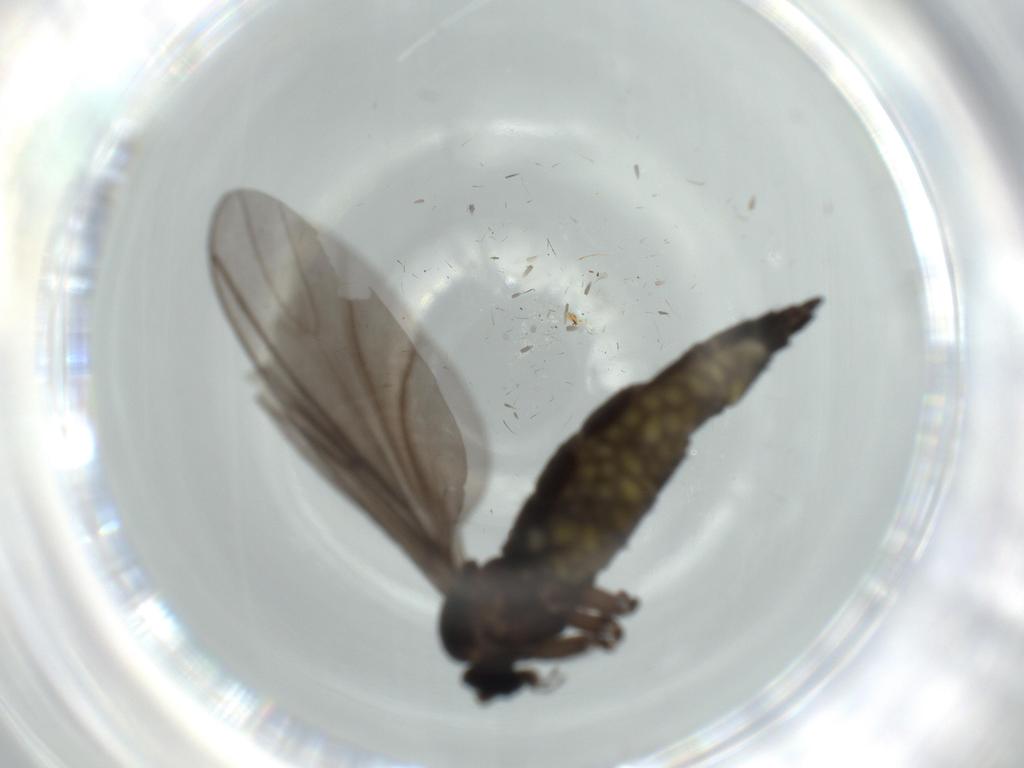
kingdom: Animalia
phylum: Arthropoda
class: Insecta
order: Diptera
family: Sciaridae
